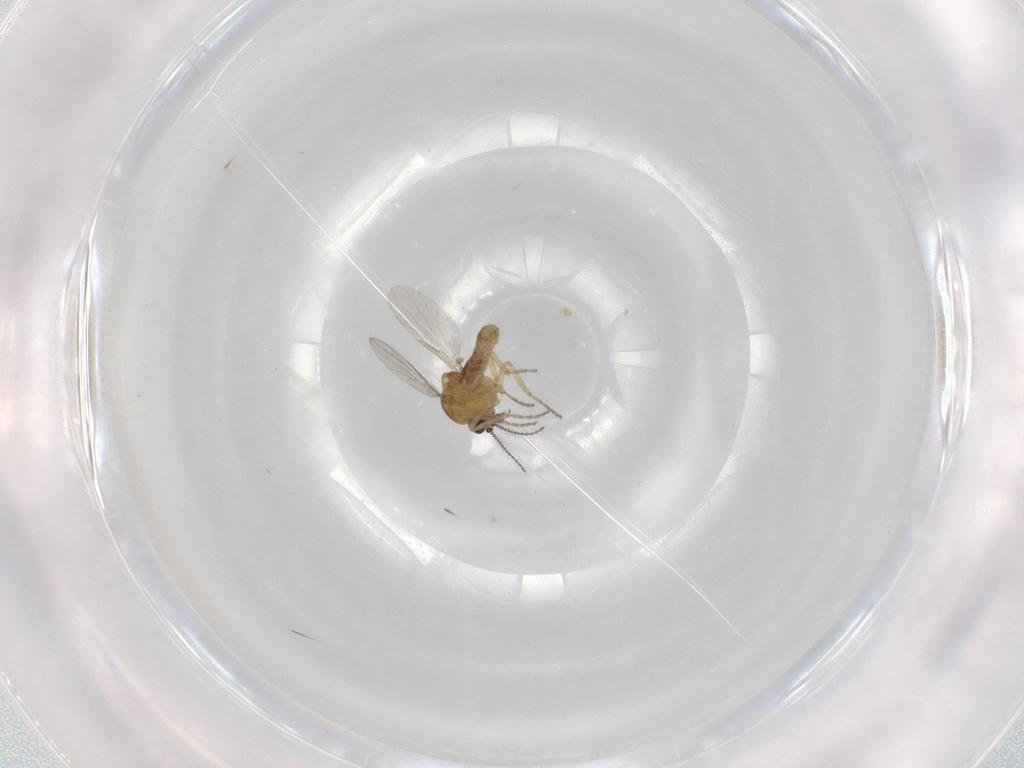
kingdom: Animalia
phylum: Arthropoda
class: Insecta
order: Diptera
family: Ceratopogonidae
